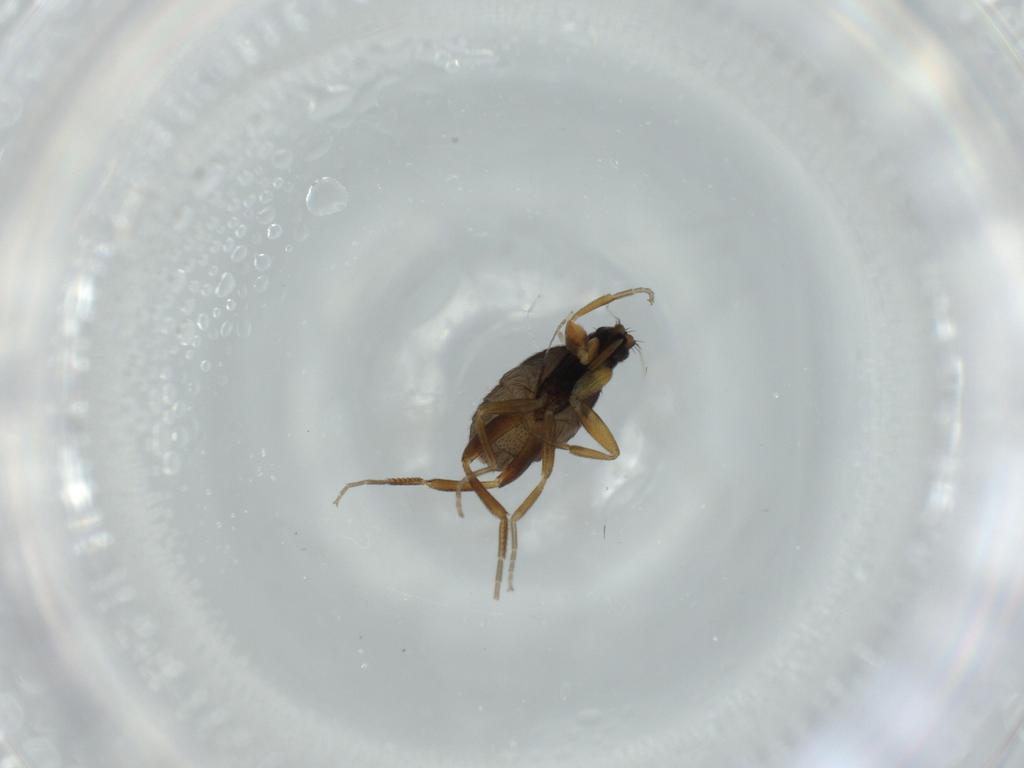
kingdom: Animalia
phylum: Arthropoda
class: Insecta
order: Diptera
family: Phoridae
